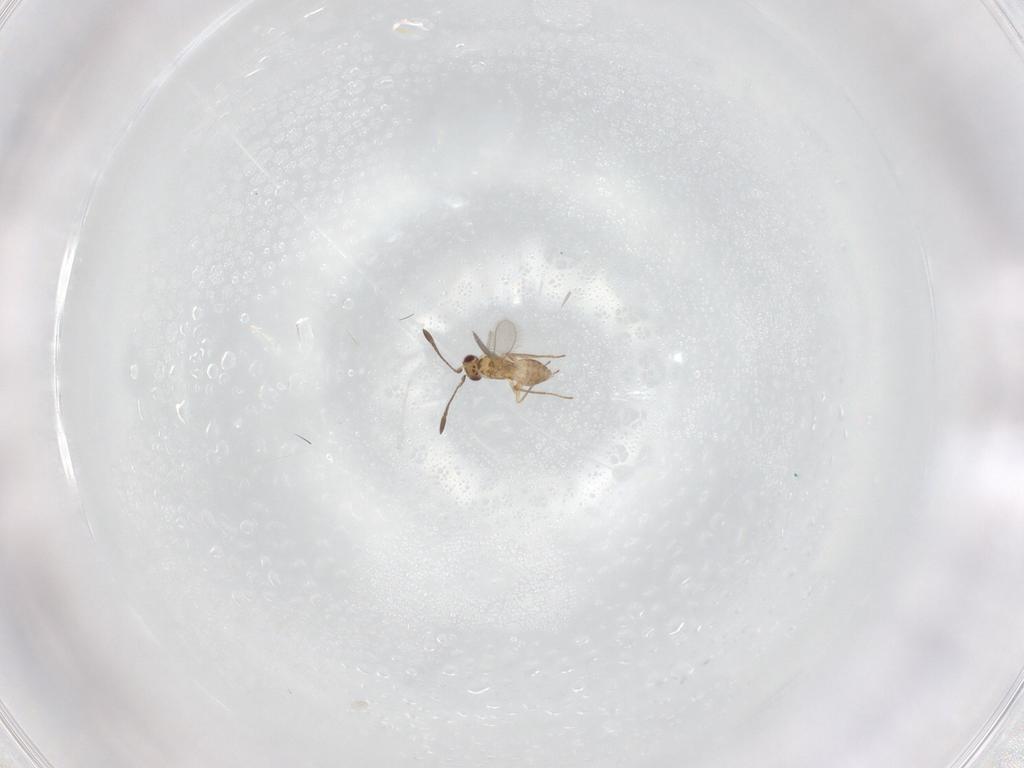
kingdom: Animalia
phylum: Arthropoda
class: Insecta
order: Hymenoptera
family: Mymaridae
